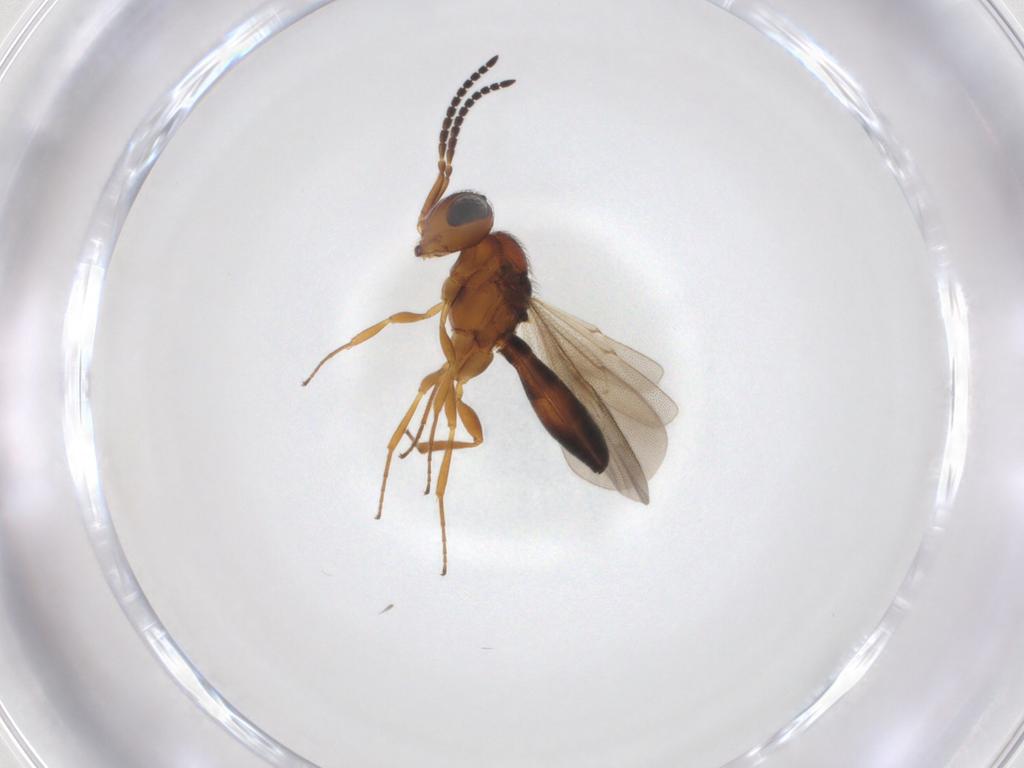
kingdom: Animalia
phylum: Arthropoda
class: Insecta
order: Hymenoptera
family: Scelionidae
